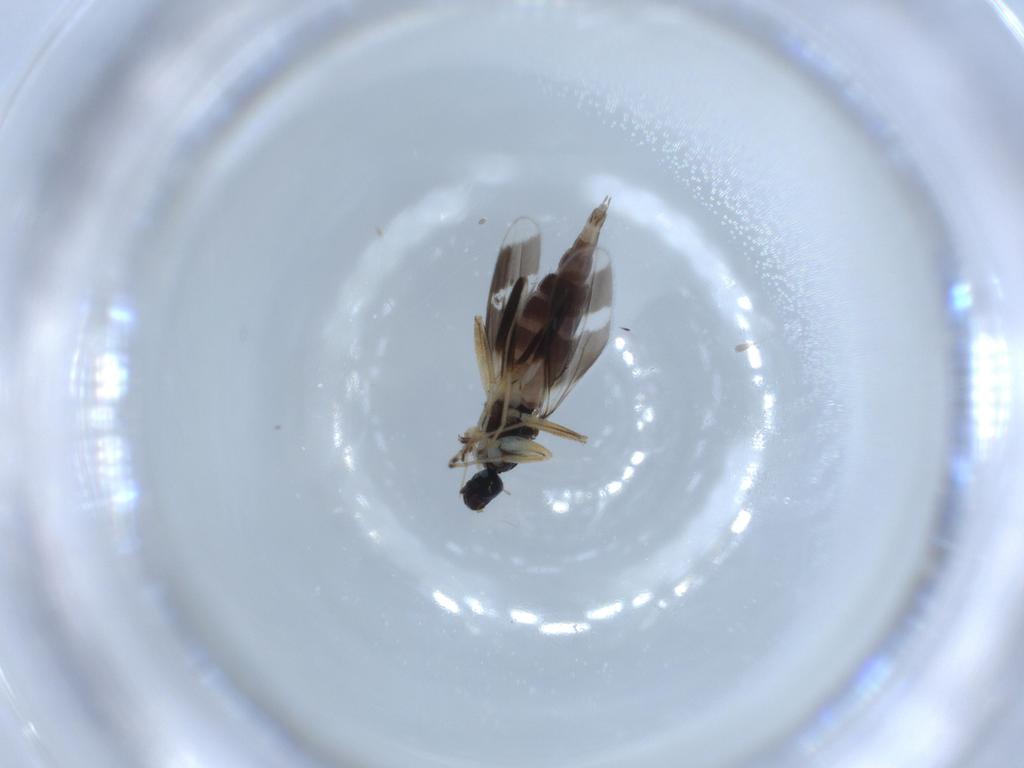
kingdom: Animalia
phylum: Arthropoda
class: Insecta
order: Diptera
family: Hybotidae
